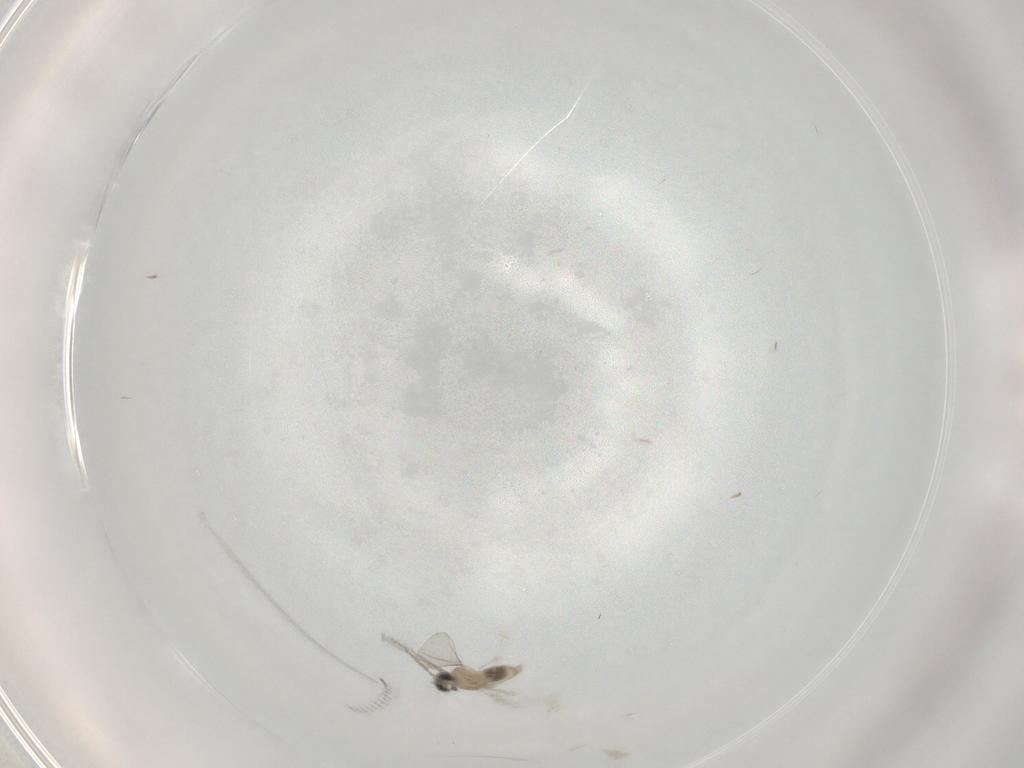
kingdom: Animalia
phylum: Arthropoda
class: Insecta
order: Diptera
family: Cecidomyiidae
